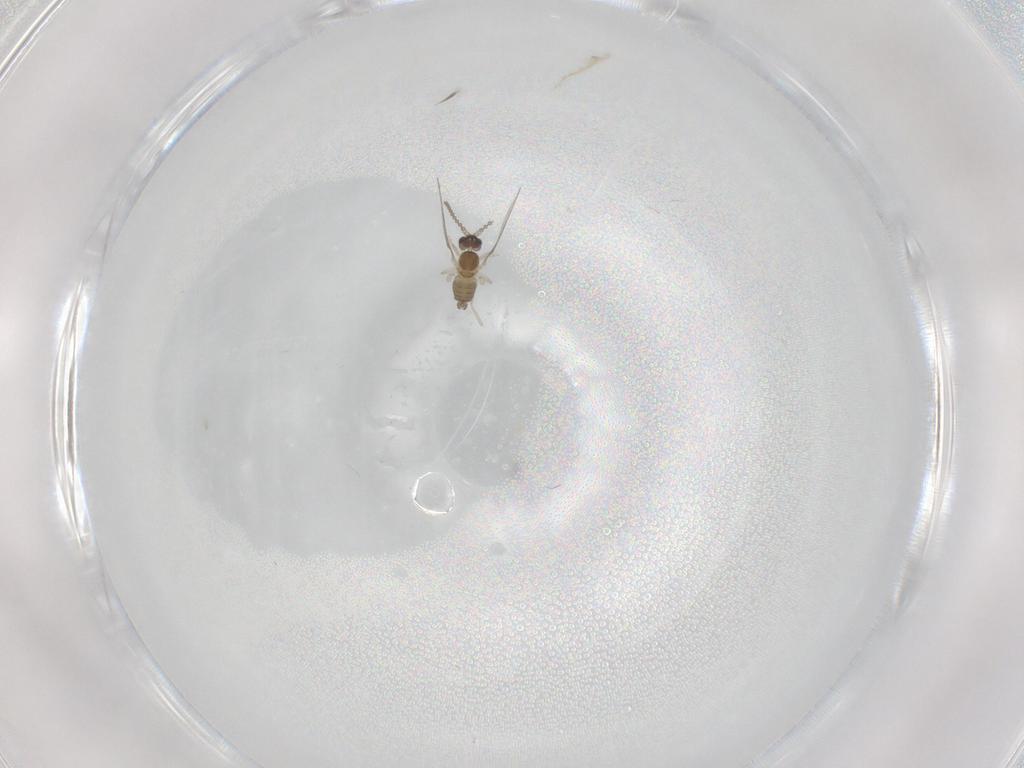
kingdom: Animalia
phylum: Arthropoda
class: Insecta
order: Diptera
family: Cecidomyiidae
